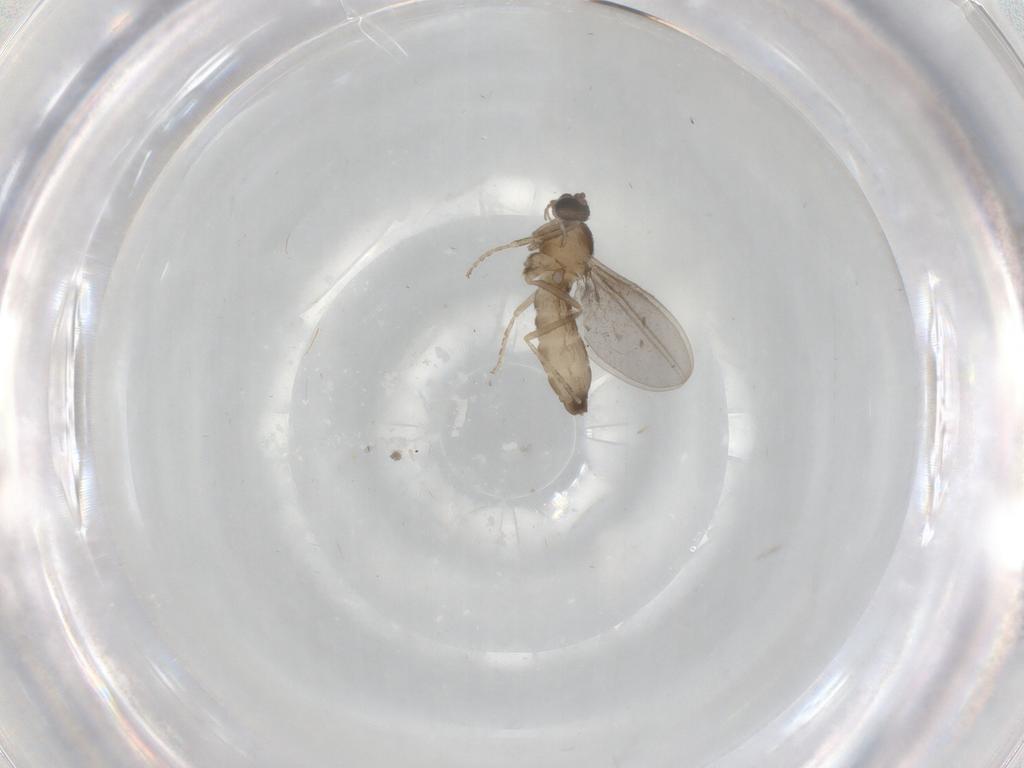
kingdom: Animalia
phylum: Arthropoda
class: Insecta
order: Diptera
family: Cecidomyiidae
